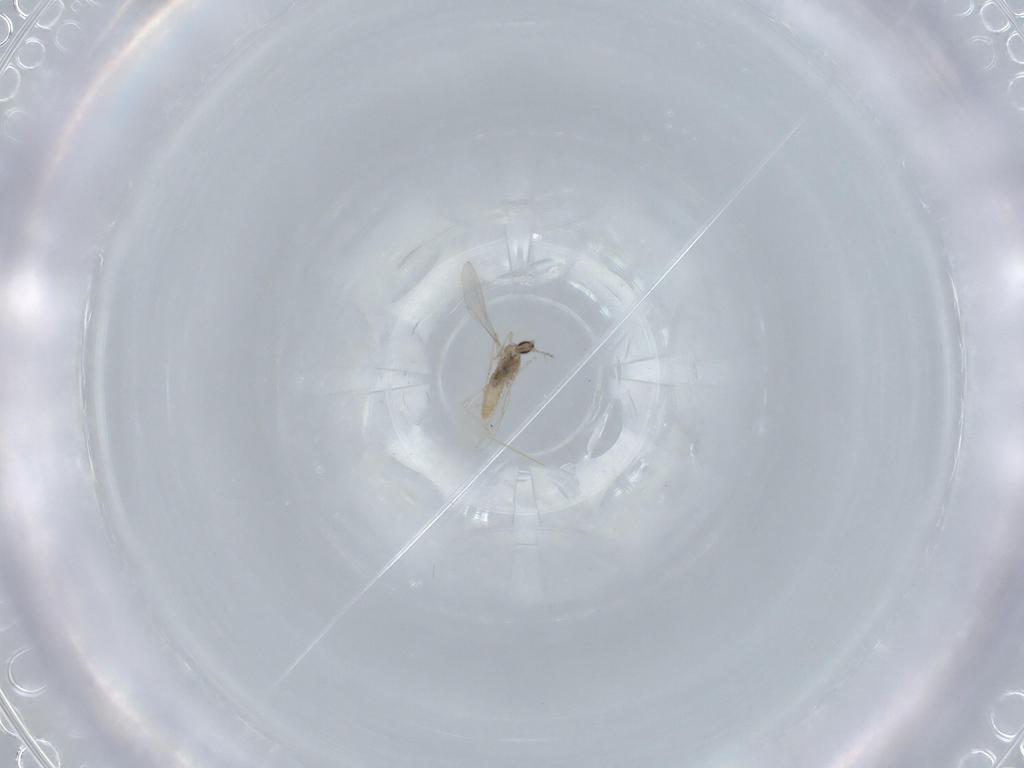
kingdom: Animalia
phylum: Arthropoda
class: Insecta
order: Diptera
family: Cecidomyiidae
